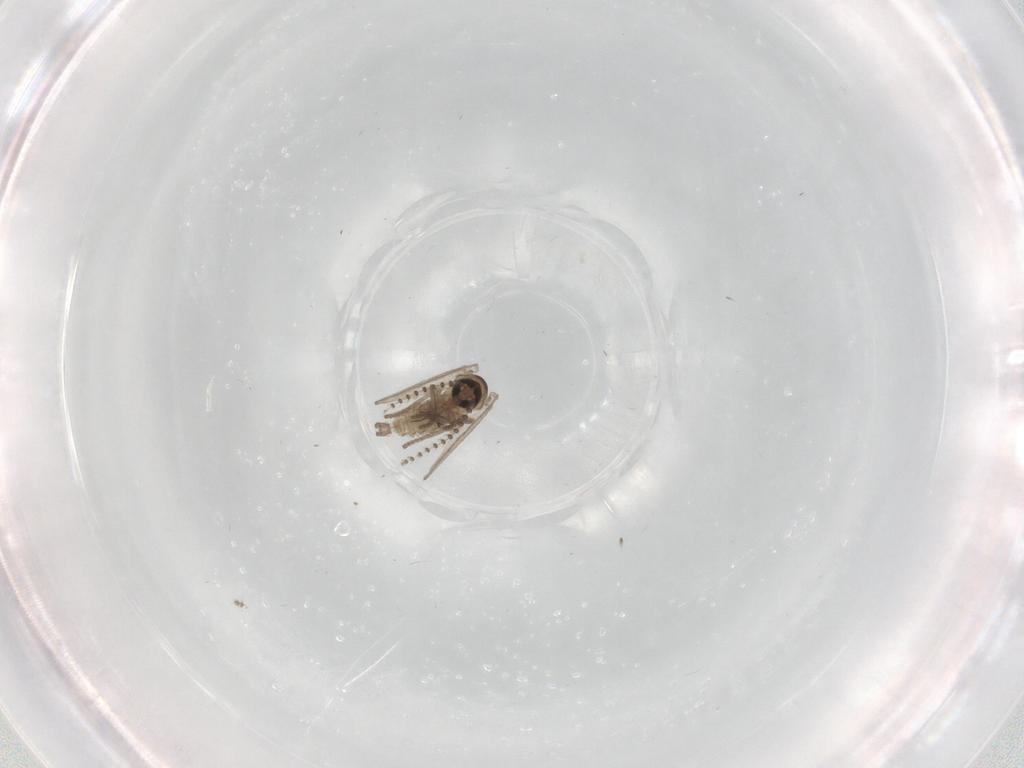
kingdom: Animalia
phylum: Arthropoda
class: Insecta
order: Diptera
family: Psychodidae
